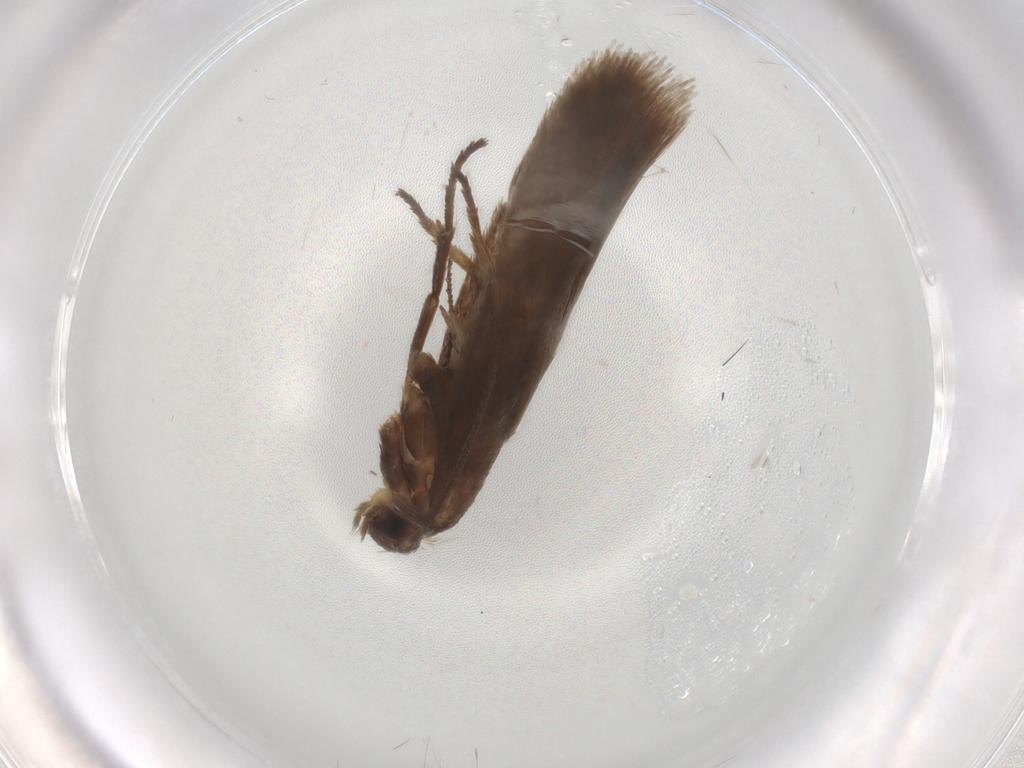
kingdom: Animalia
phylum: Arthropoda
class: Insecta
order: Lepidoptera
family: Limacodidae
